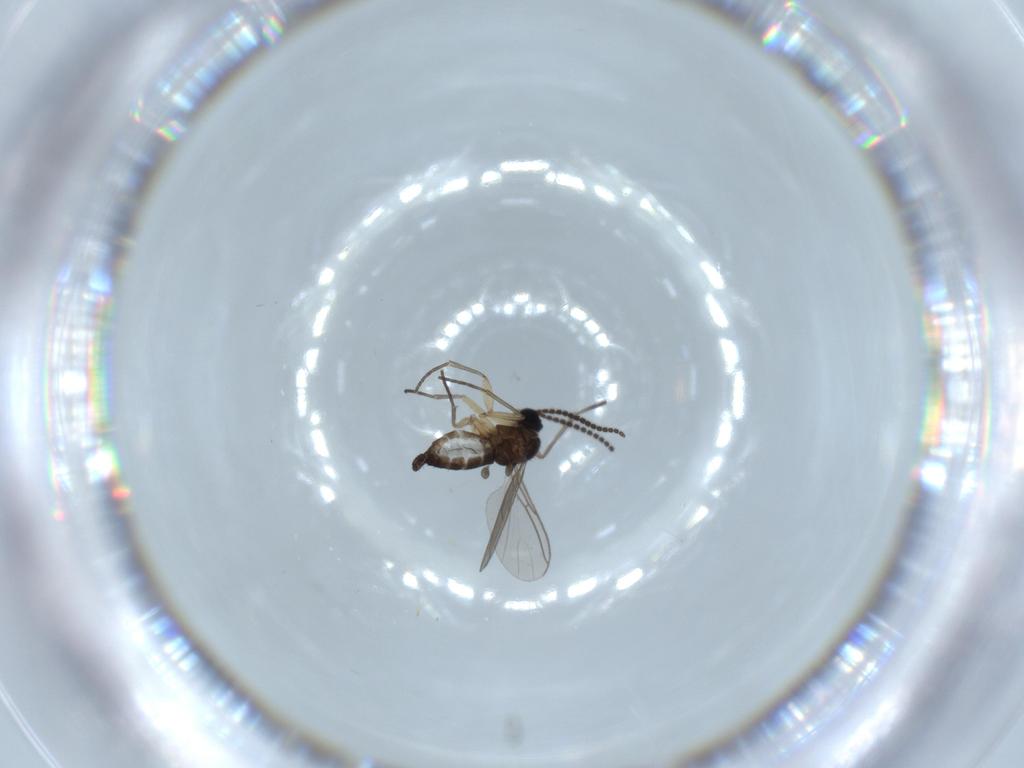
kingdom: Animalia
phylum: Arthropoda
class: Insecta
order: Diptera
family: Sciaridae
